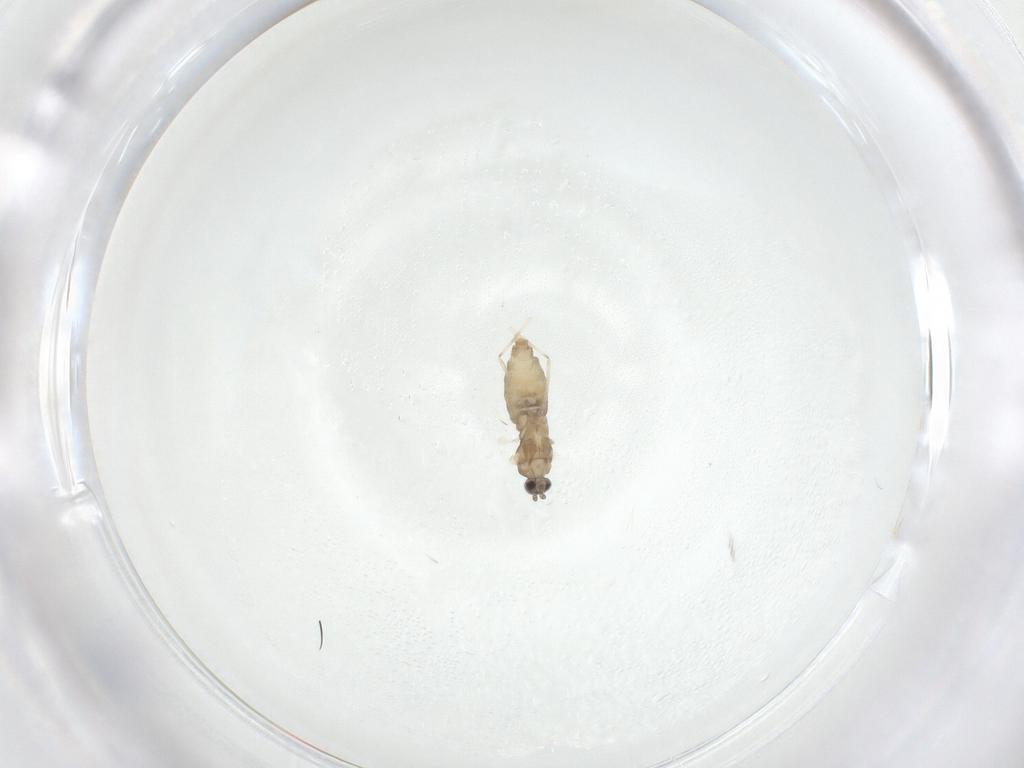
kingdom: Animalia
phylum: Arthropoda
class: Insecta
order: Diptera
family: Cecidomyiidae
